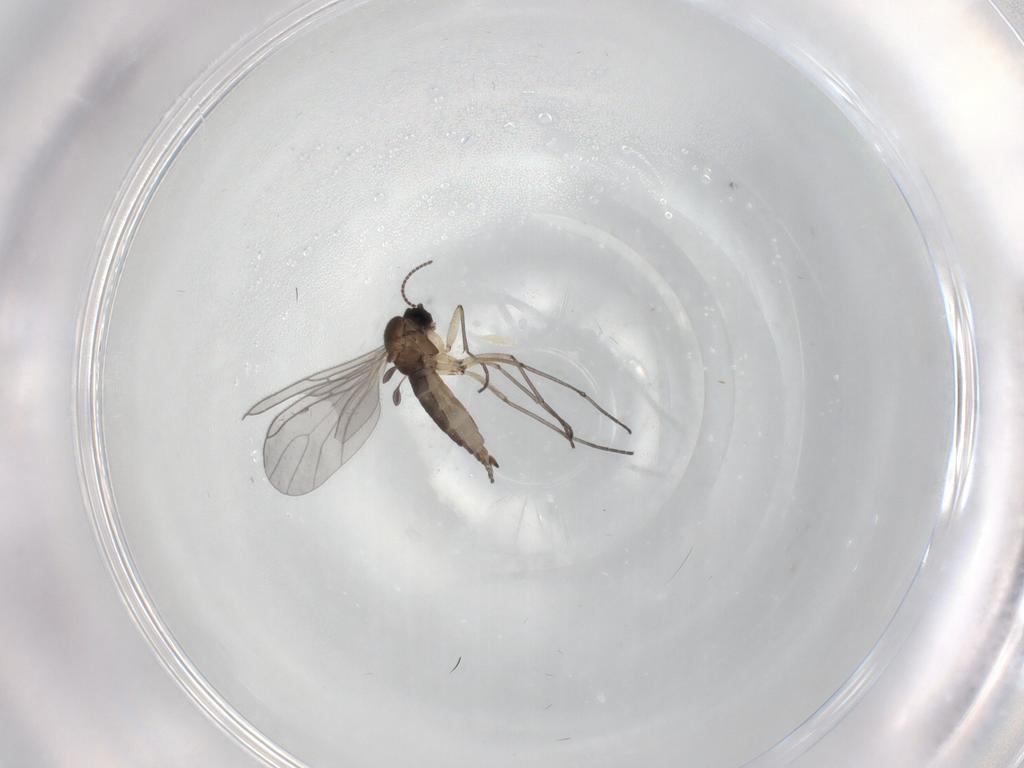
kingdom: Animalia
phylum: Arthropoda
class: Insecta
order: Diptera
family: Sciaridae
